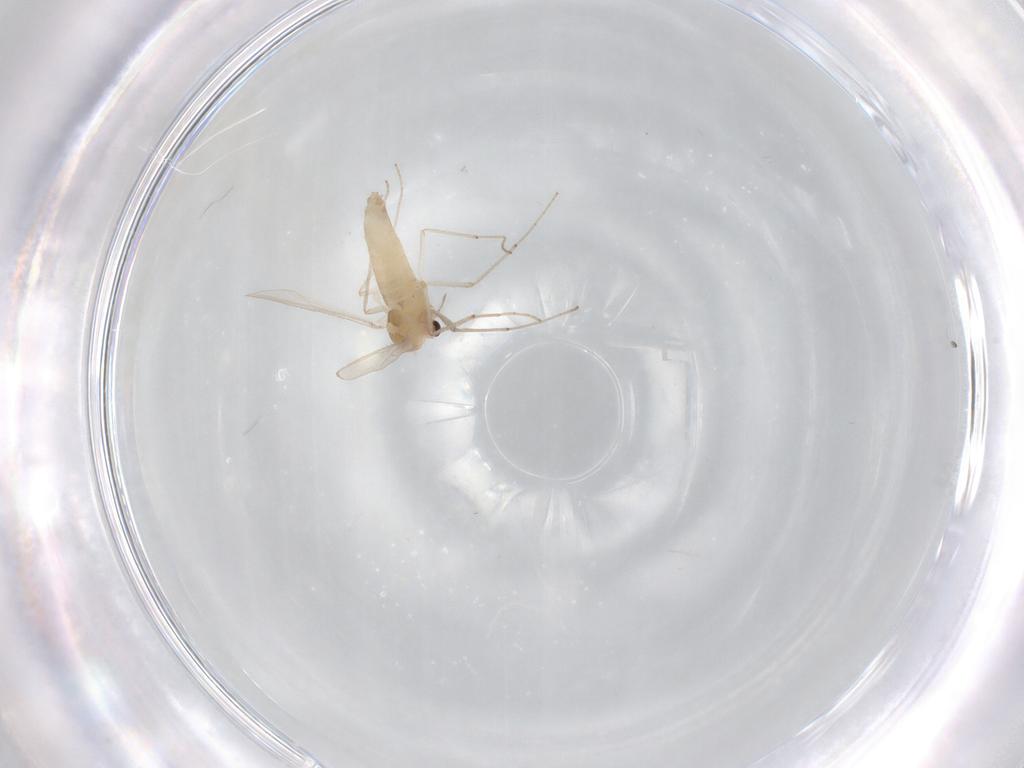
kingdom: Animalia
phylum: Arthropoda
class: Insecta
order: Diptera
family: Chironomidae
